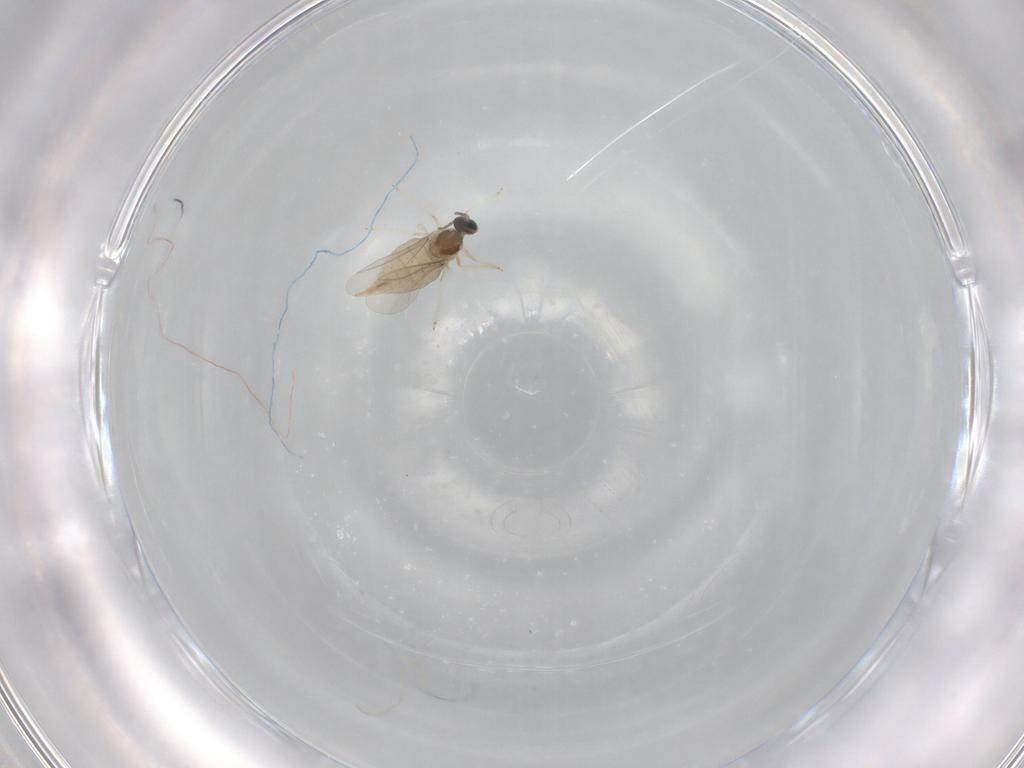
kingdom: Animalia
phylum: Arthropoda
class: Insecta
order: Diptera
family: Cecidomyiidae
